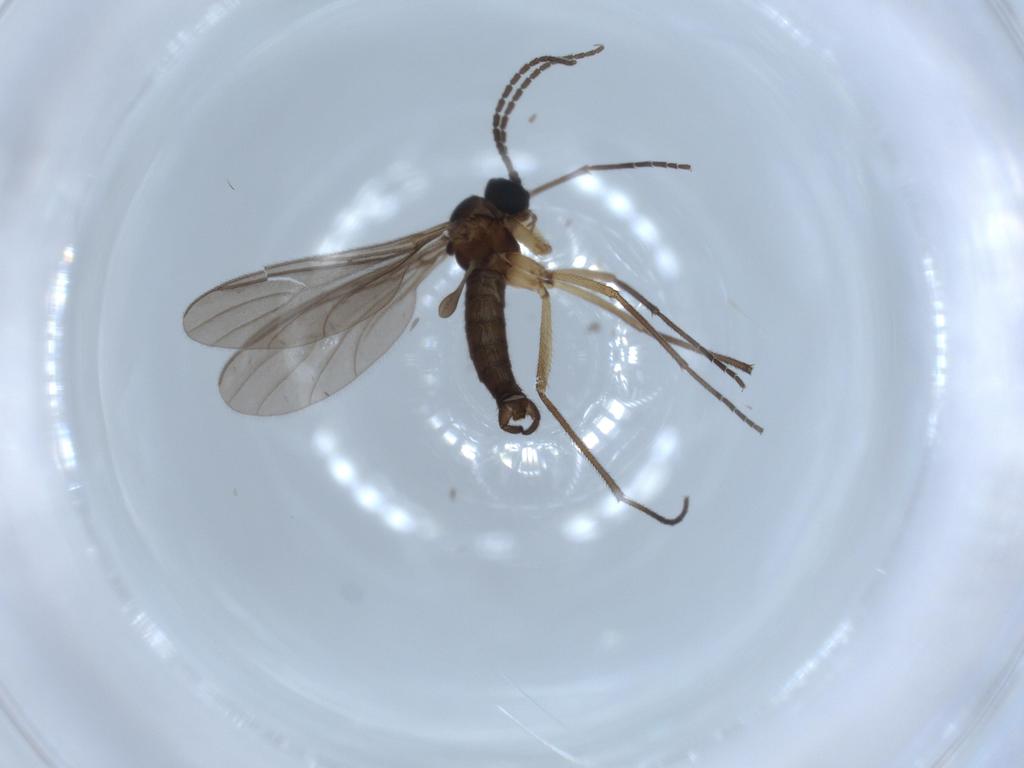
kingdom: Animalia
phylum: Arthropoda
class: Insecta
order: Diptera
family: Sciaridae
